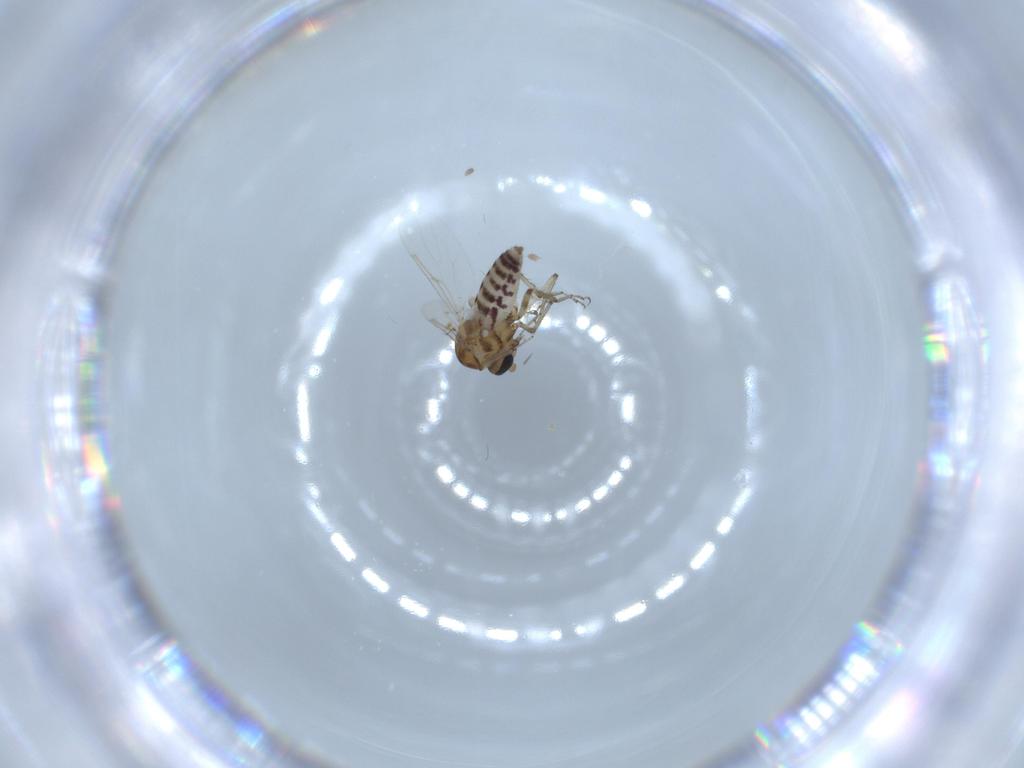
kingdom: Animalia
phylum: Arthropoda
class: Insecta
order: Diptera
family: Ceratopogonidae
